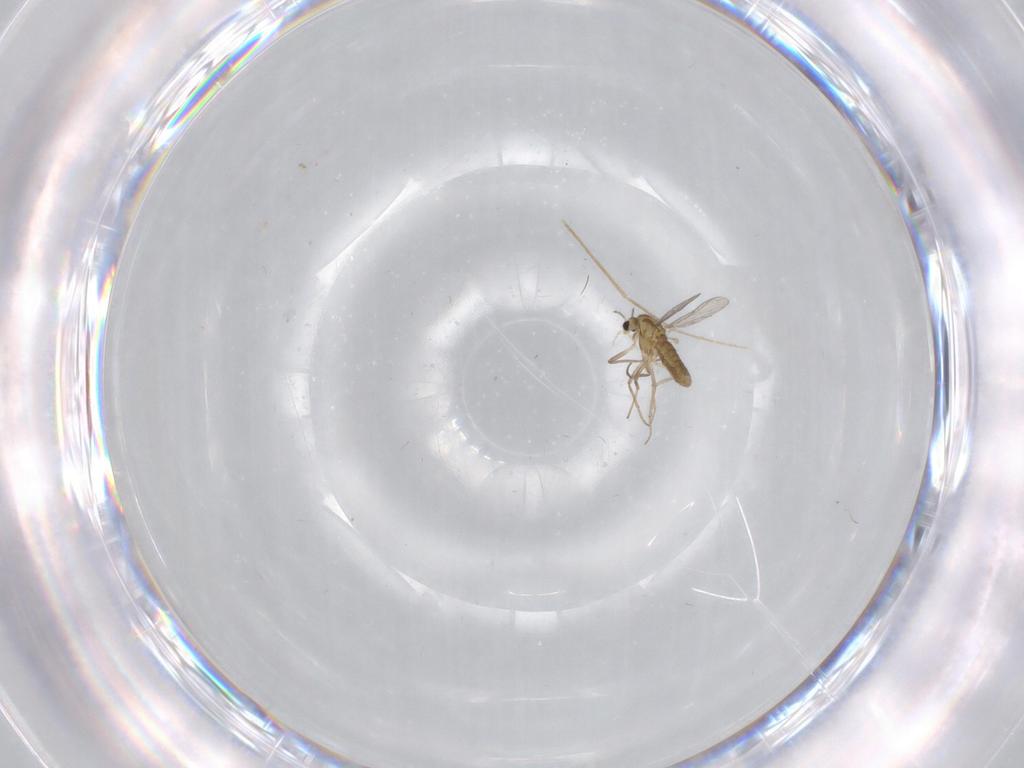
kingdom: Animalia
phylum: Arthropoda
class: Insecta
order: Diptera
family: Chironomidae
